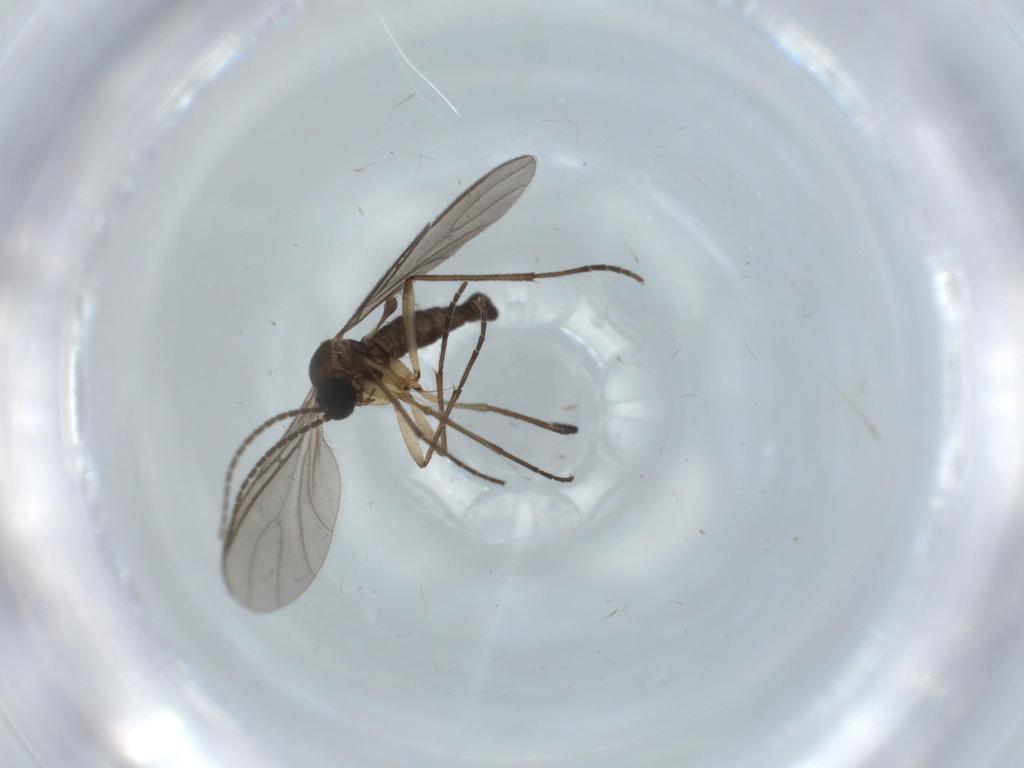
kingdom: Animalia
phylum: Arthropoda
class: Insecta
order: Diptera
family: Sciaridae
